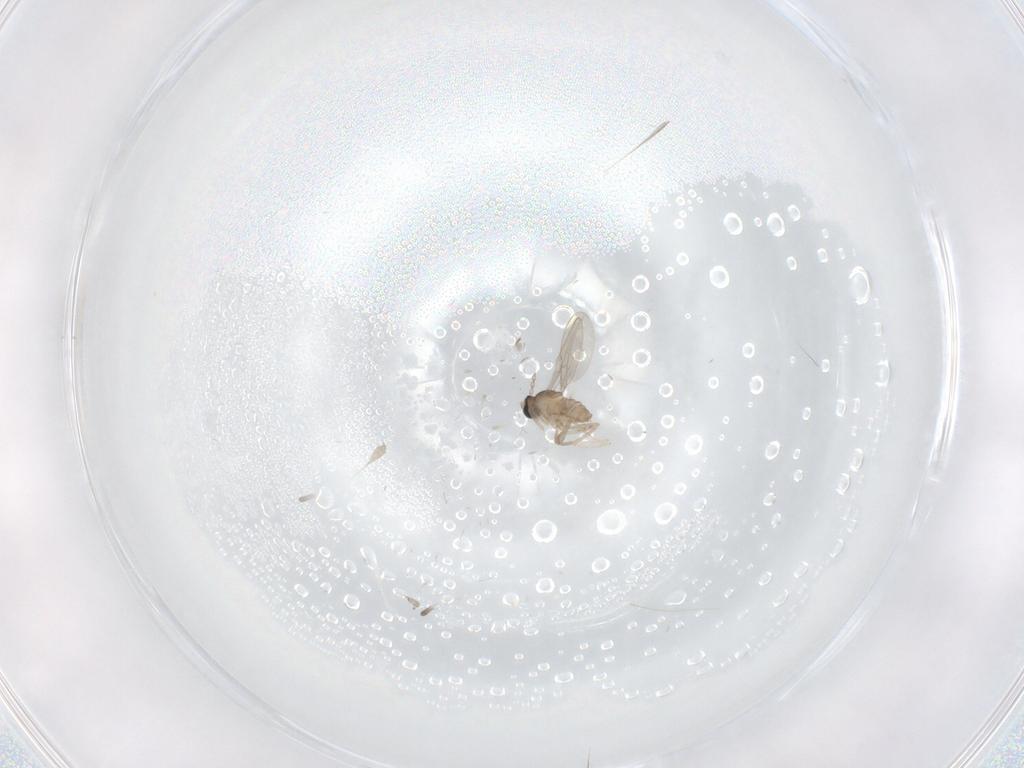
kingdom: Animalia
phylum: Arthropoda
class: Insecta
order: Diptera
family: Cecidomyiidae
